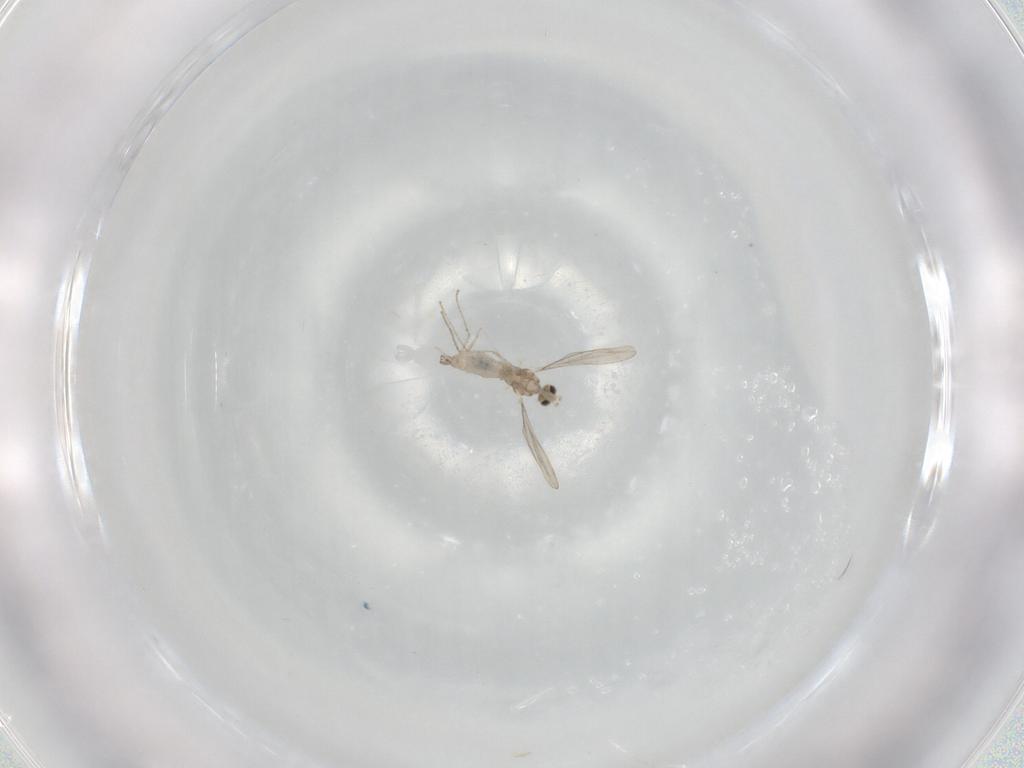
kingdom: Animalia
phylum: Arthropoda
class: Insecta
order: Diptera
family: Cecidomyiidae
